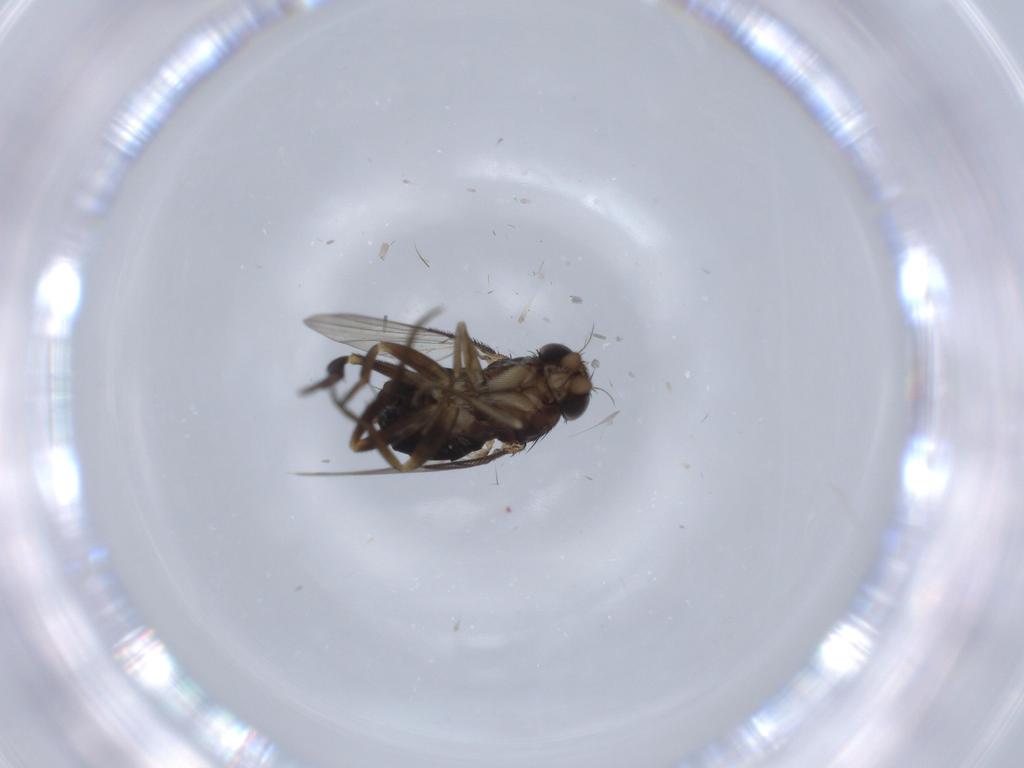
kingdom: Animalia
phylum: Arthropoda
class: Insecta
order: Diptera
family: Phoridae
